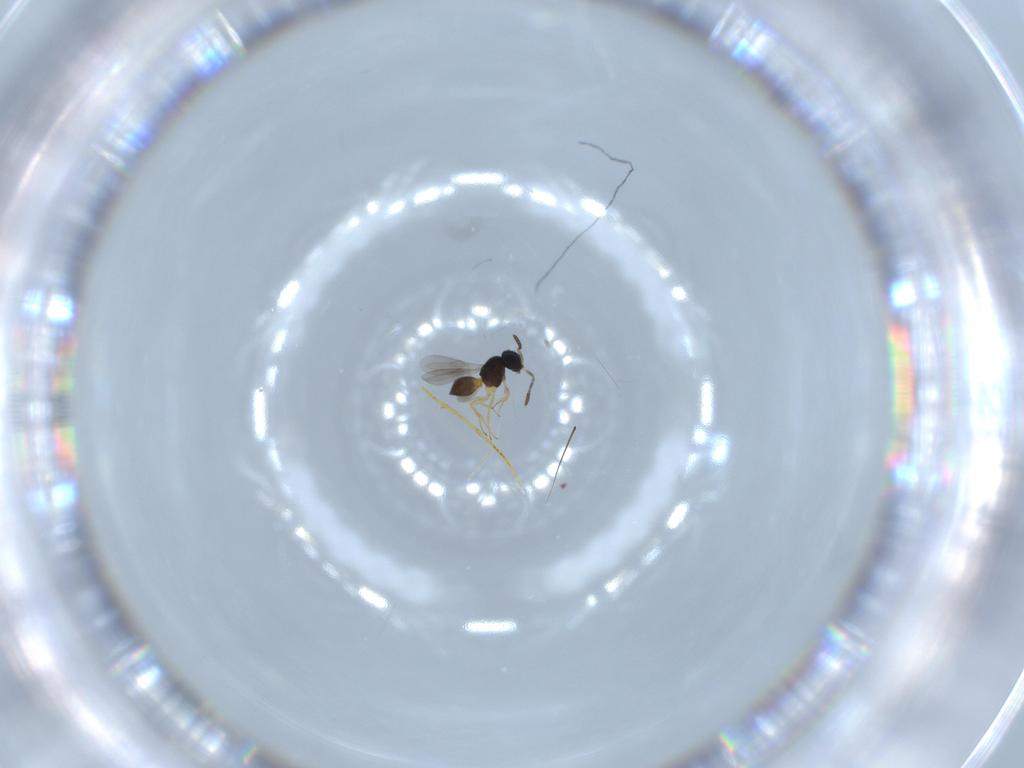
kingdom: Animalia
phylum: Arthropoda
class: Insecta
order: Hymenoptera
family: Scelionidae
